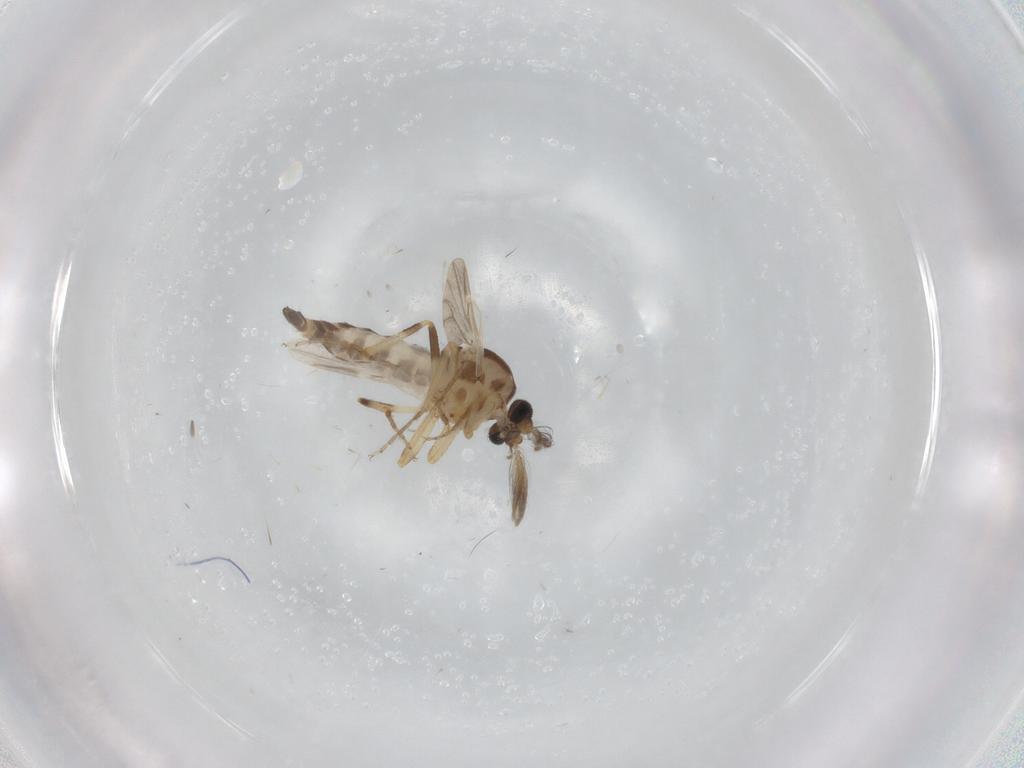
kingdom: Animalia
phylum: Arthropoda
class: Insecta
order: Diptera
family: Ceratopogonidae
